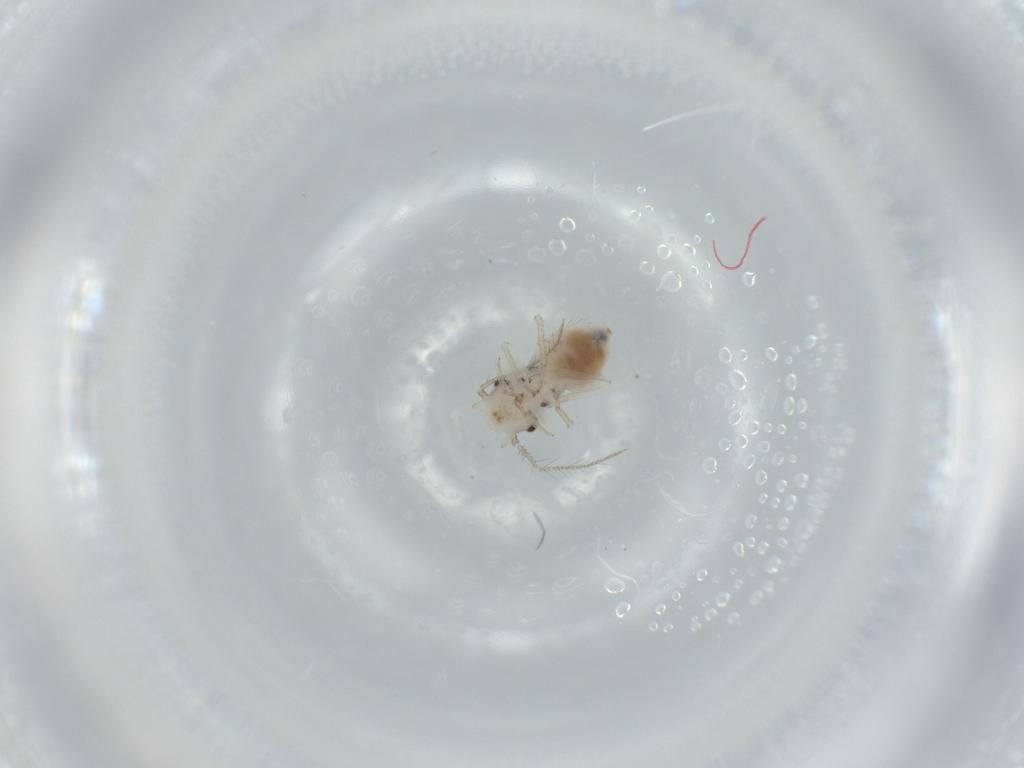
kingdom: Animalia
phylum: Arthropoda
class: Insecta
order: Psocodea
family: Pseudocaeciliidae
